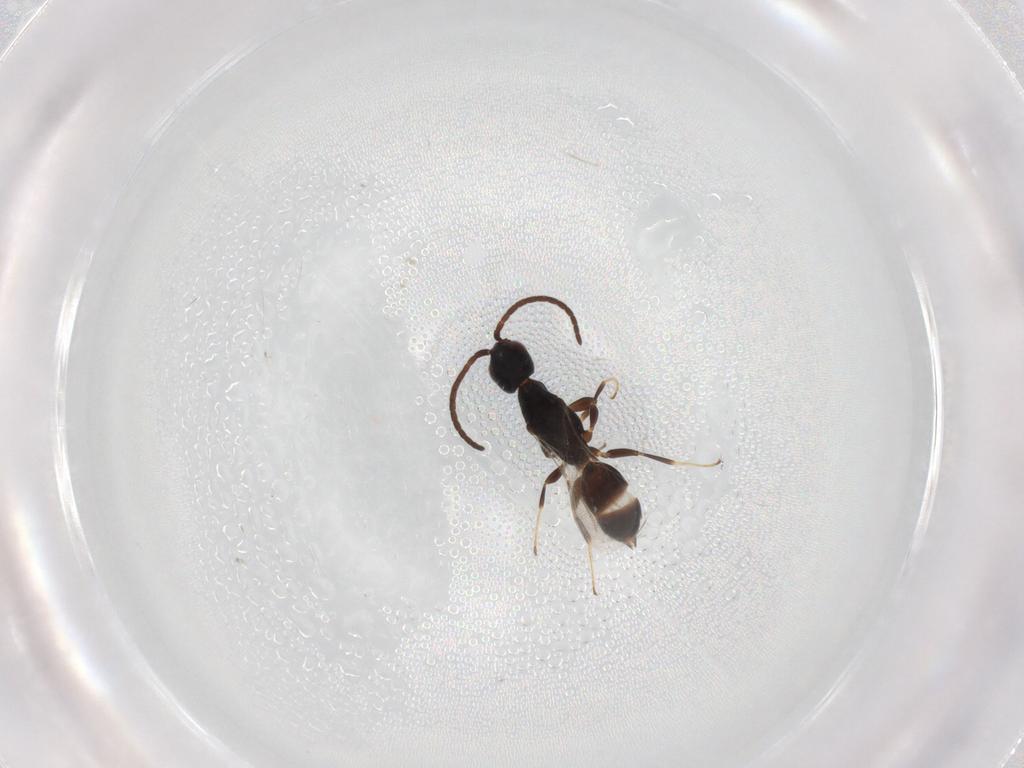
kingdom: Animalia
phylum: Arthropoda
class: Insecta
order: Hymenoptera
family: Bethylidae
